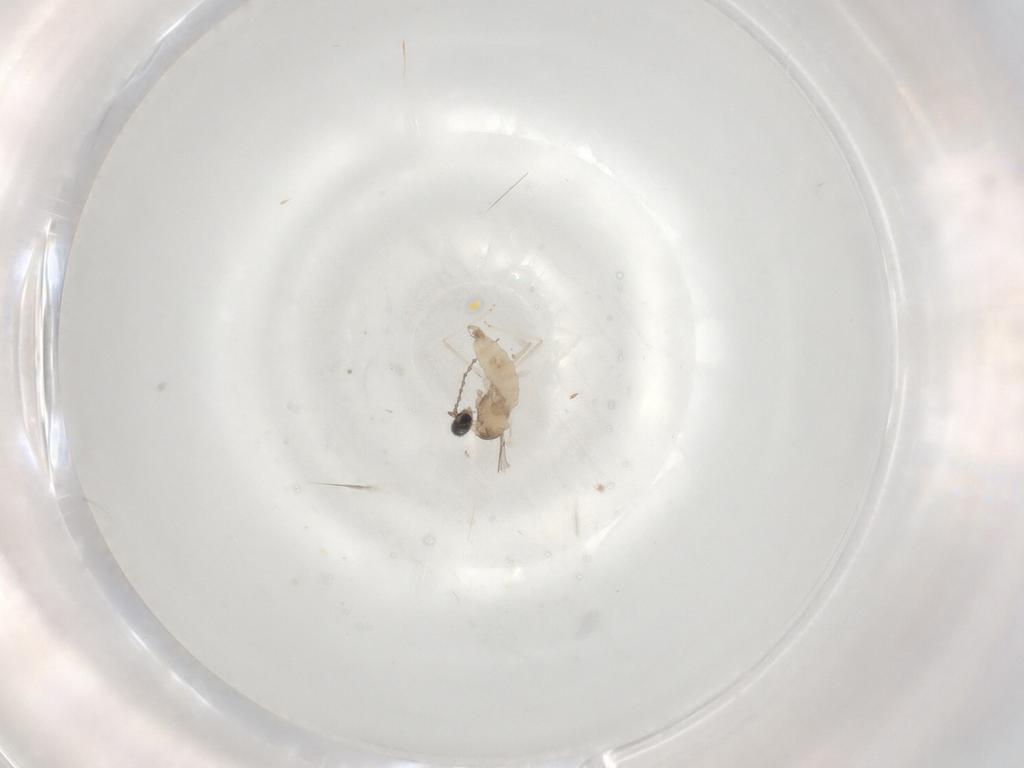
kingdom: Animalia
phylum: Arthropoda
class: Insecta
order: Diptera
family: Cecidomyiidae
